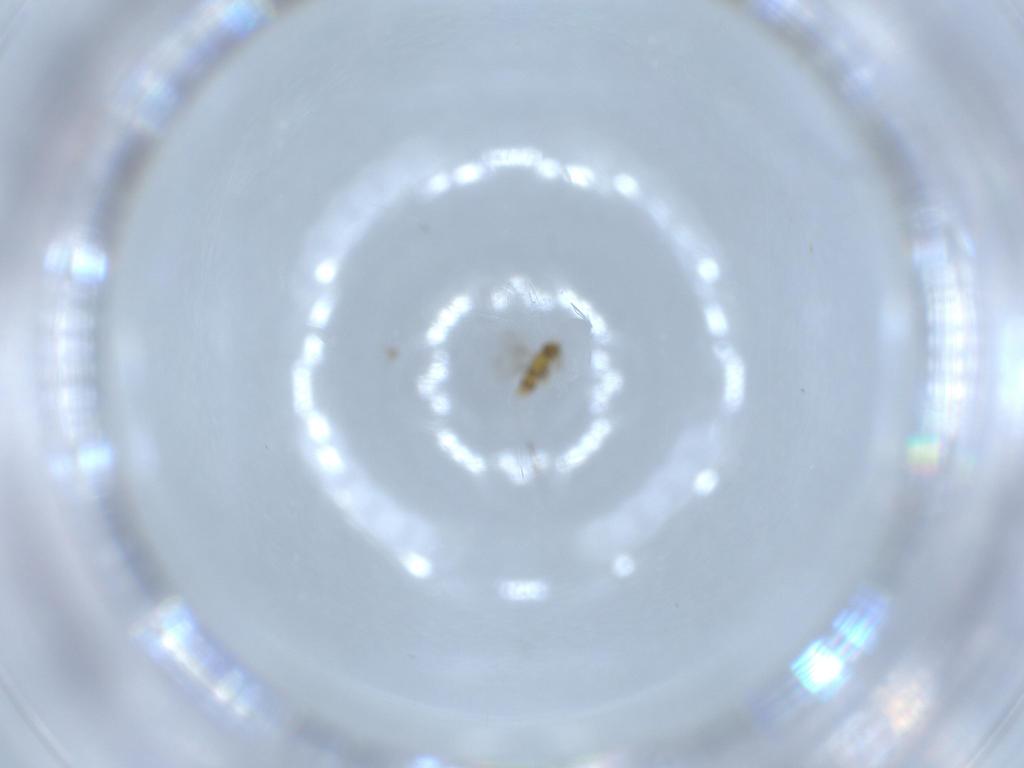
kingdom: Animalia
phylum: Arthropoda
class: Insecta
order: Hymenoptera
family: Aphelinidae
